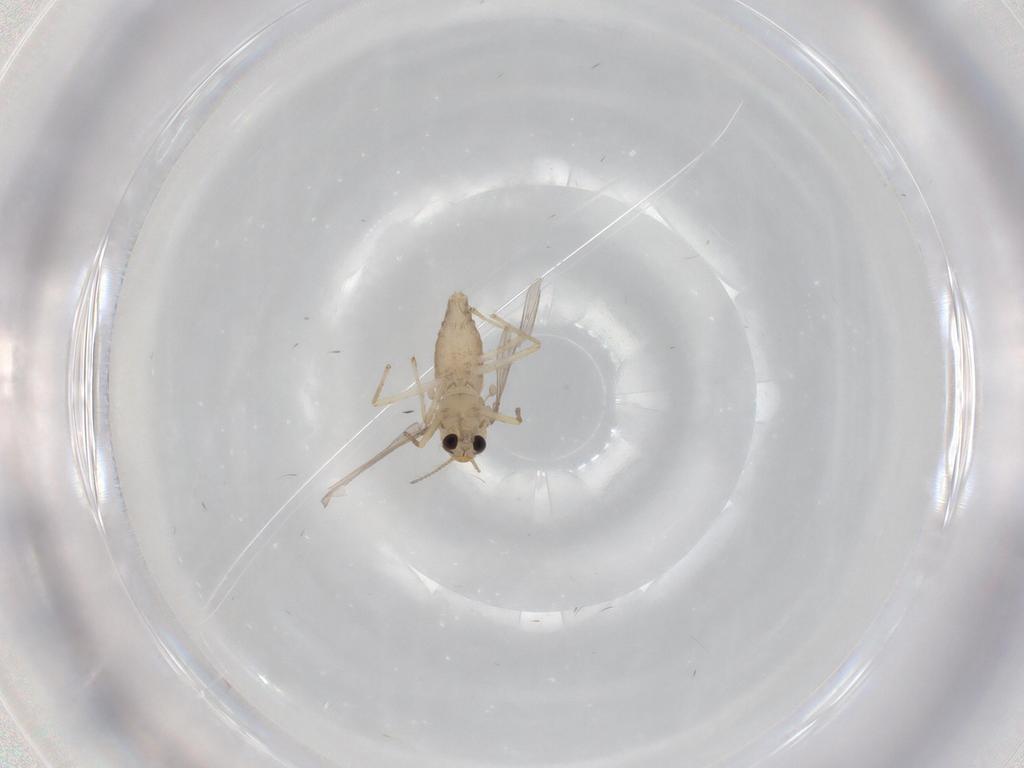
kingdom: Animalia
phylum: Arthropoda
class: Insecta
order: Diptera
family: Chironomidae
